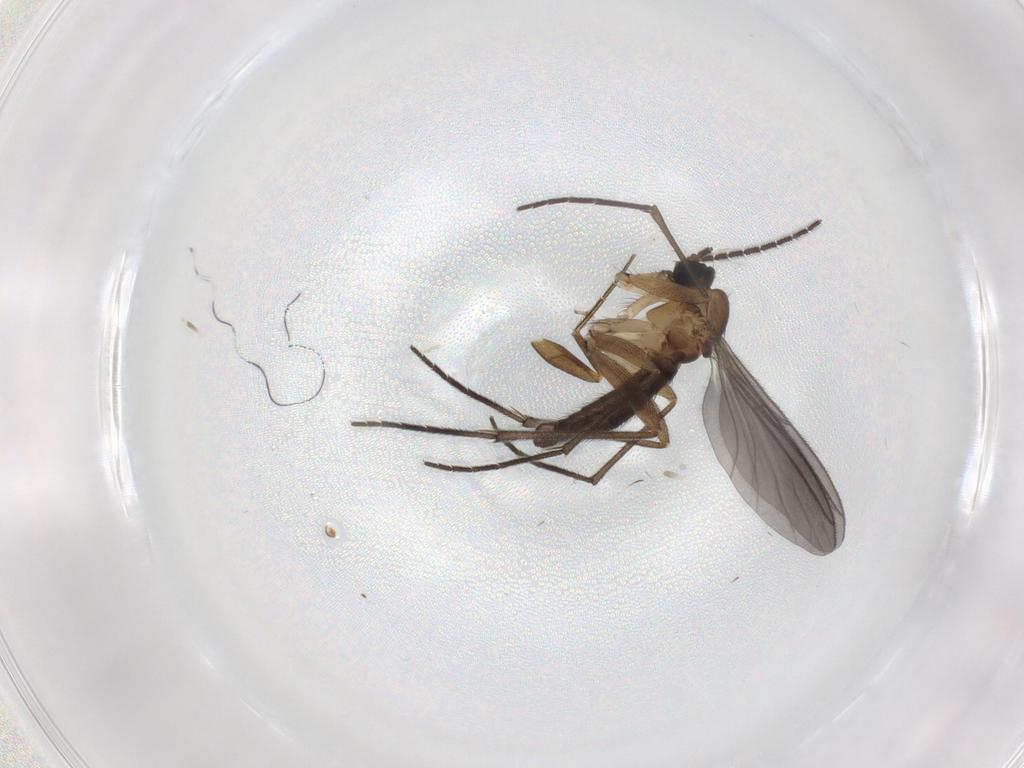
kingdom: Animalia
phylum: Arthropoda
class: Insecta
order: Diptera
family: Phoridae
